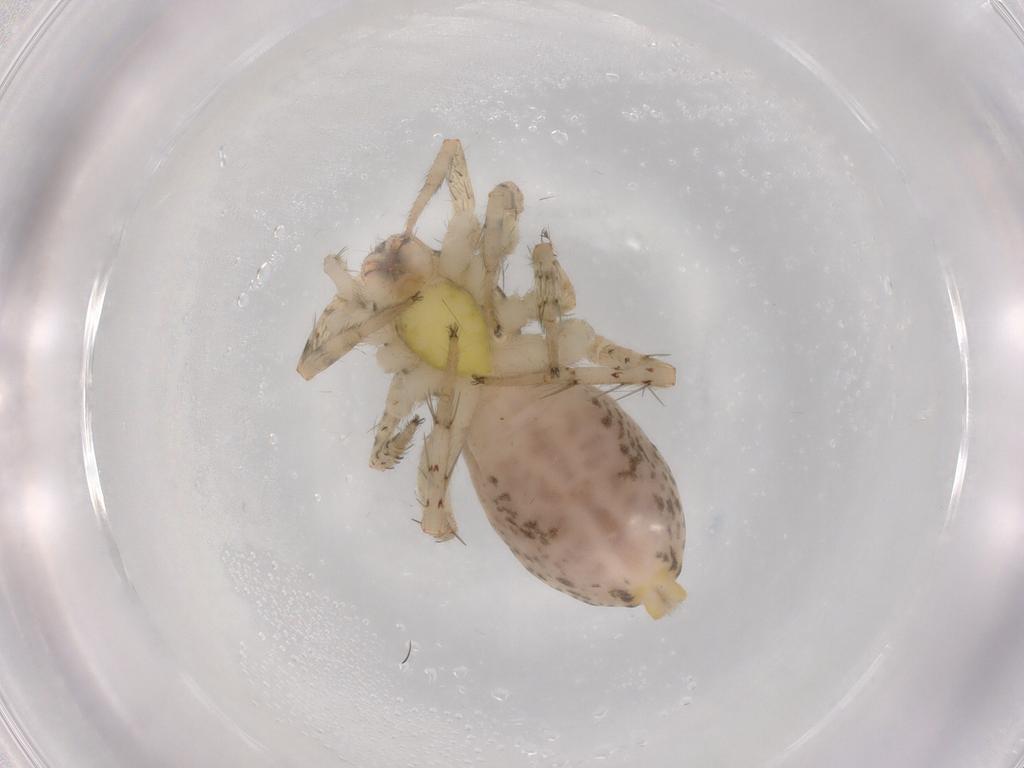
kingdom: Animalia
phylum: Arthropoda
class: Arachnida
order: Araneae
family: Anyphaenidae
